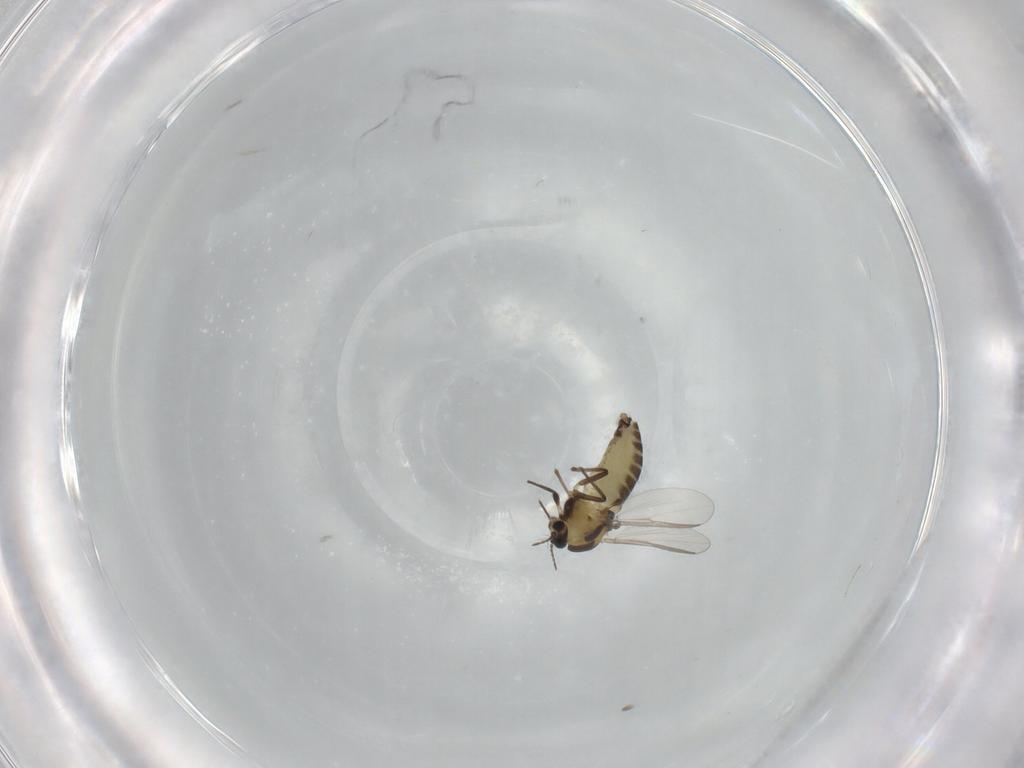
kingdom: Animalia
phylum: Arthropoda
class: Insecta
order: Diptera
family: Chironomidae
